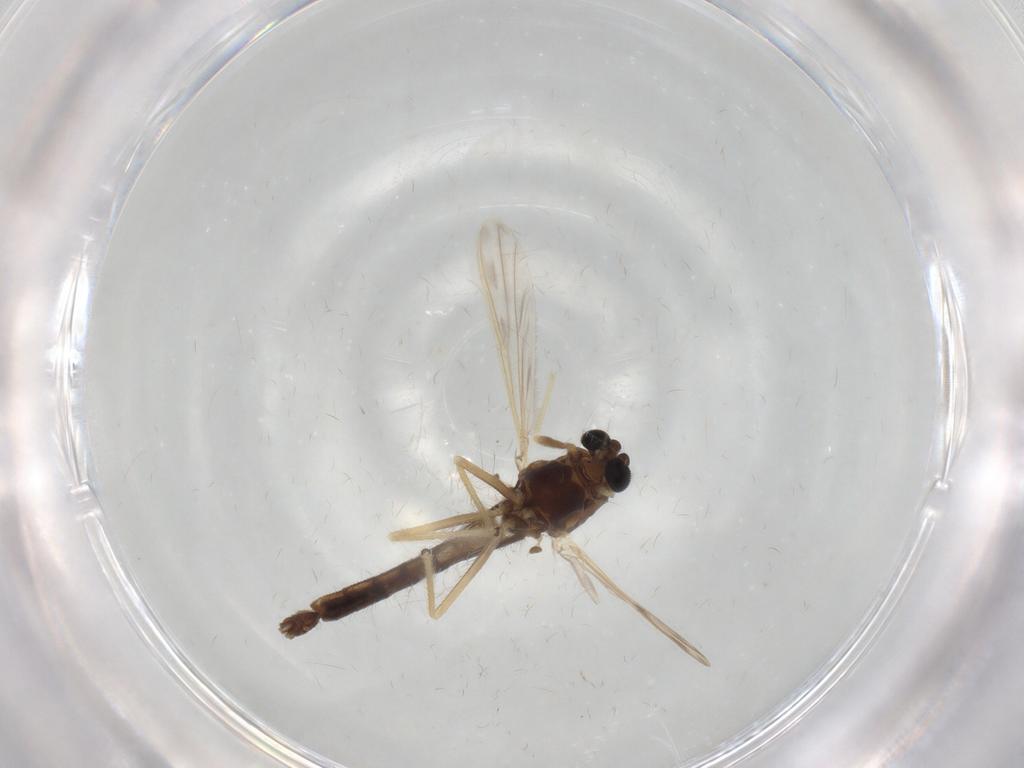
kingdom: Animalia
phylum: Arthropoda
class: Insecta
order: Diptera
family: Chironomidae
